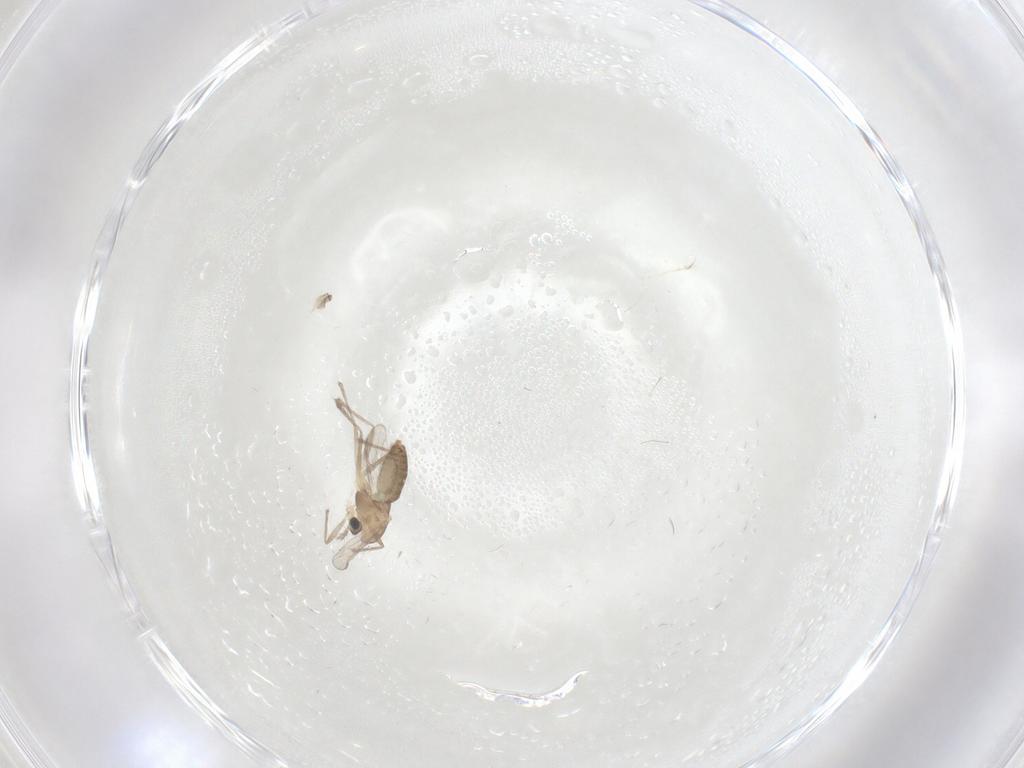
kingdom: Animalia
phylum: Arthropoda
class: Insecta
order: Diptera
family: Chironomidae
